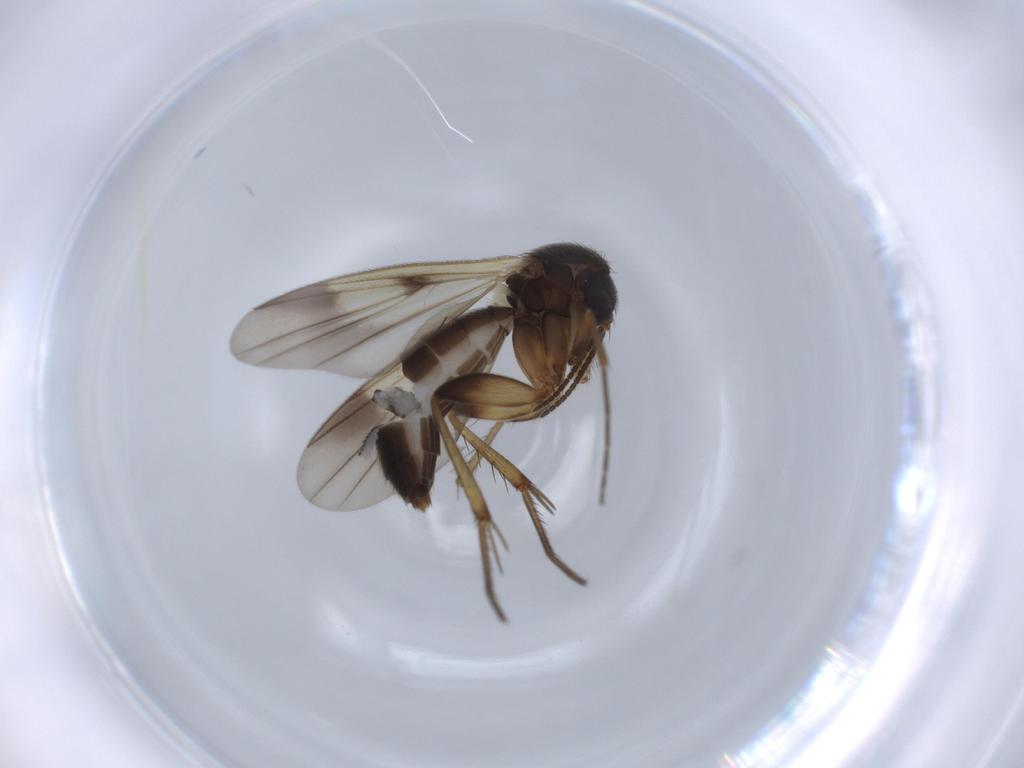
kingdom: Animalia
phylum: Arthropoda
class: Insecta
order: Diptera
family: Mycetophilidae
